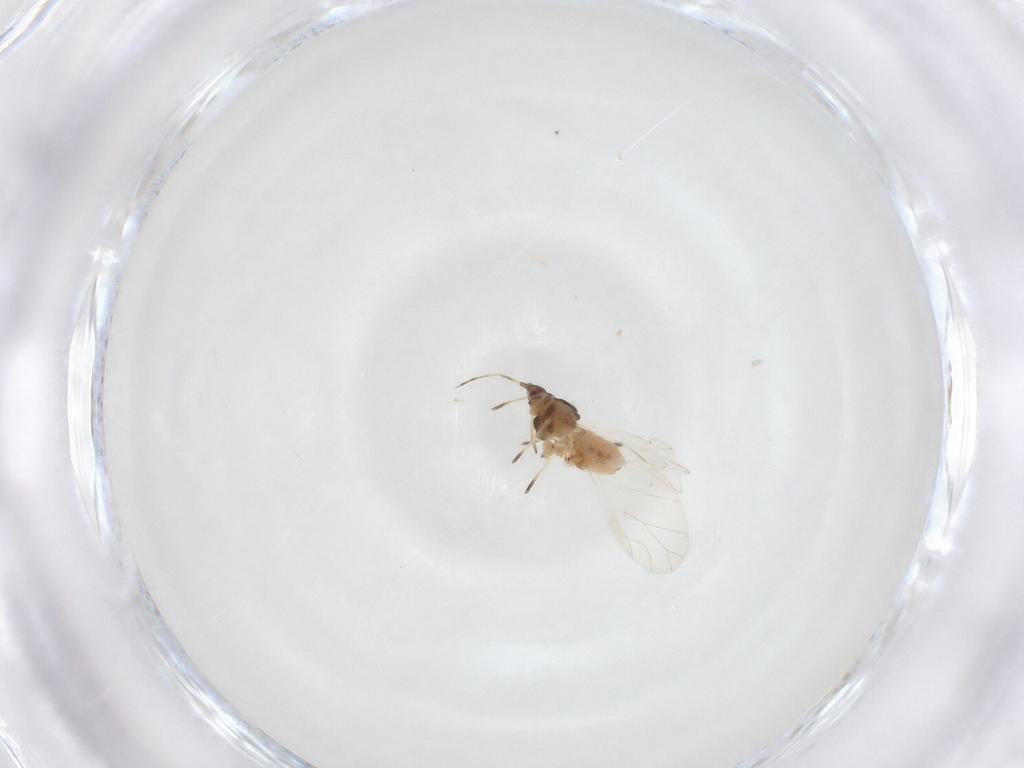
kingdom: Animalia
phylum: Arthropoda
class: Insecta
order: Hemiptera
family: Aphididae
